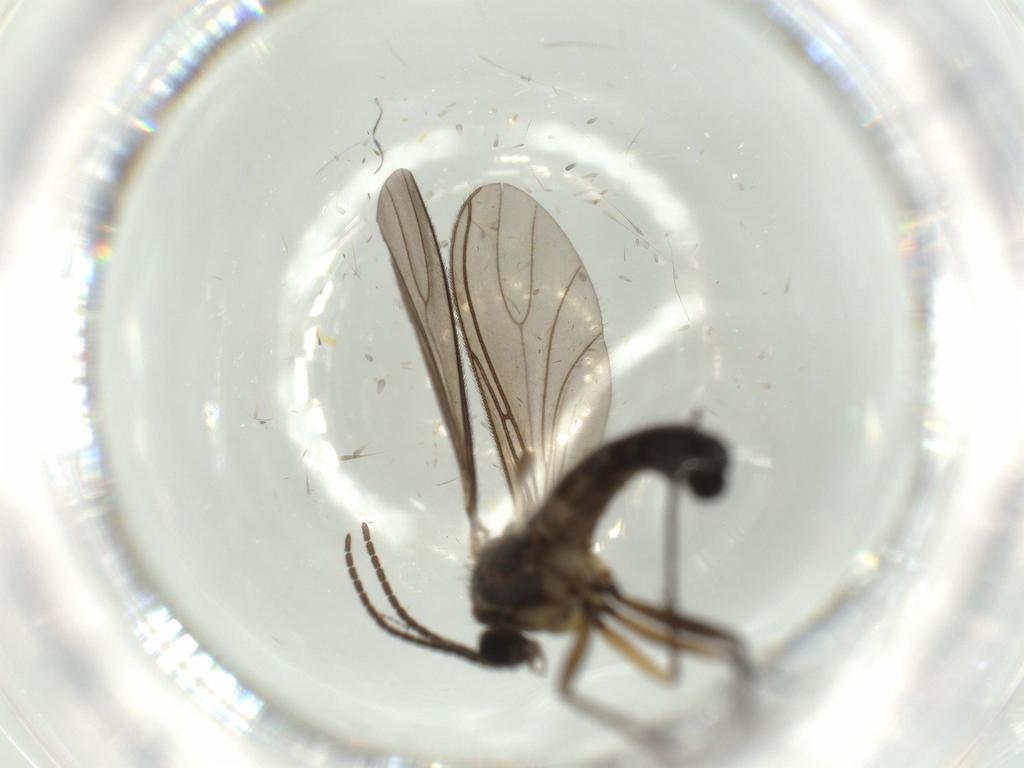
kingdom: Animalia
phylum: Arthropoda
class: Insecta
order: Diptera
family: Sciaridae
